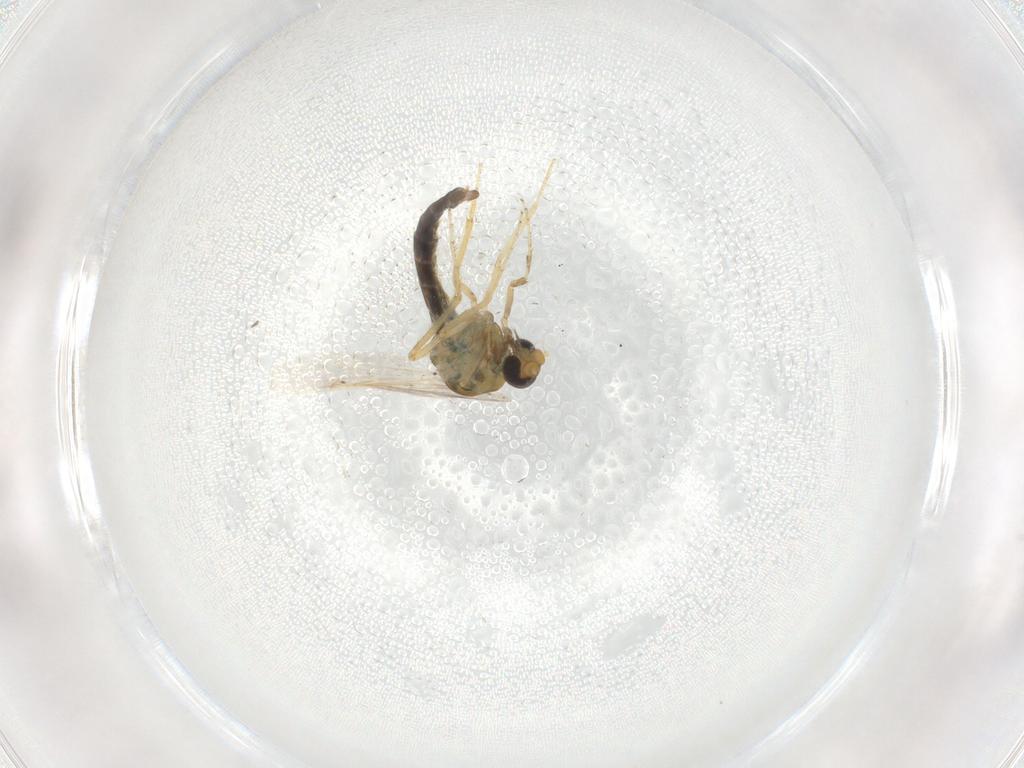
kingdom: Animalia
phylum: Arthropoda
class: Insecta
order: Diptera
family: Ceratopogonidae
